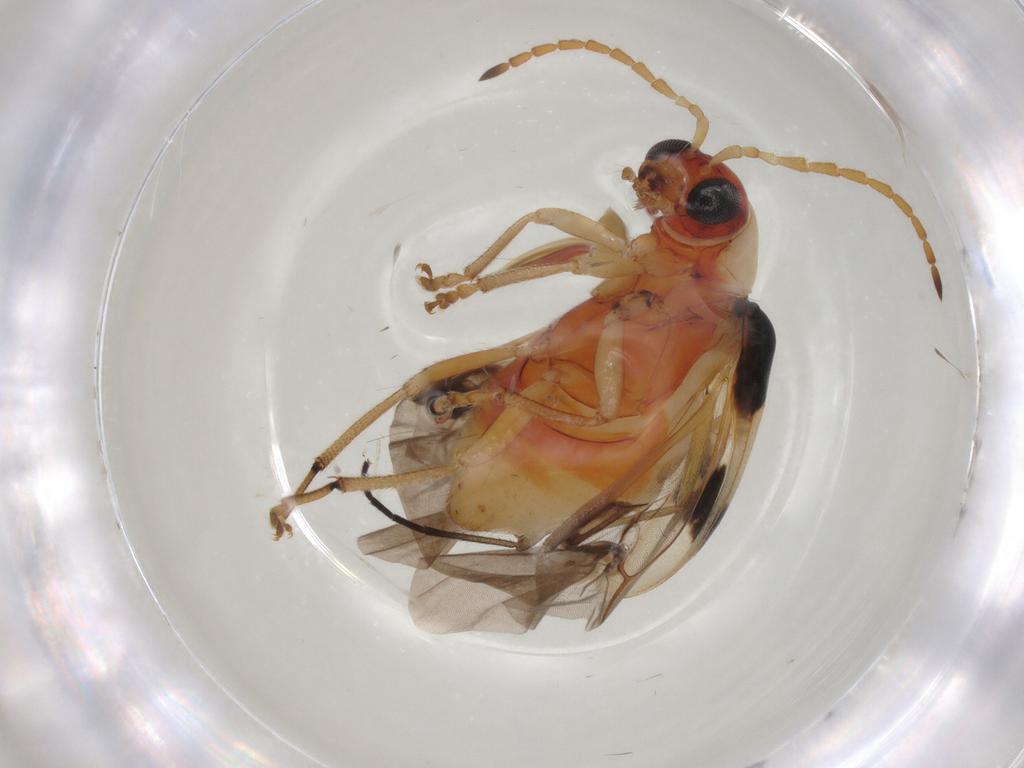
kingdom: Animalia
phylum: Arthropoda
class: Insecta
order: Coleoptera
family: Chrysomelidae
